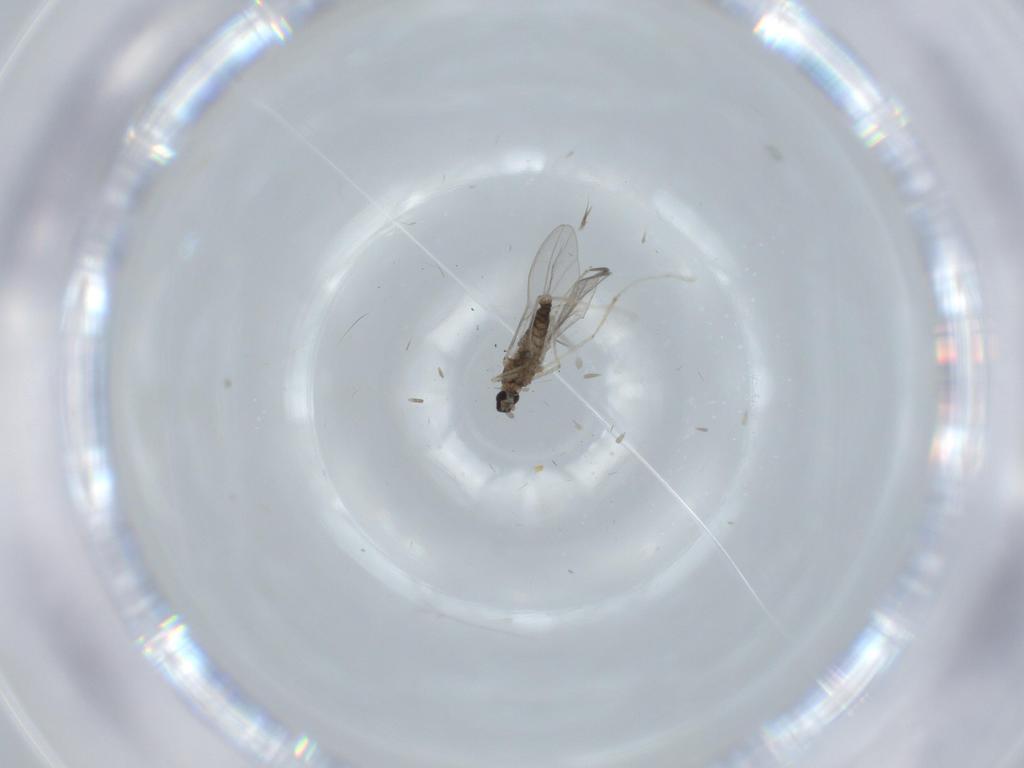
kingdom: Animalia
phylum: Arthropoda
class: Insecta
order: Diptera
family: Cecidomyiidae
